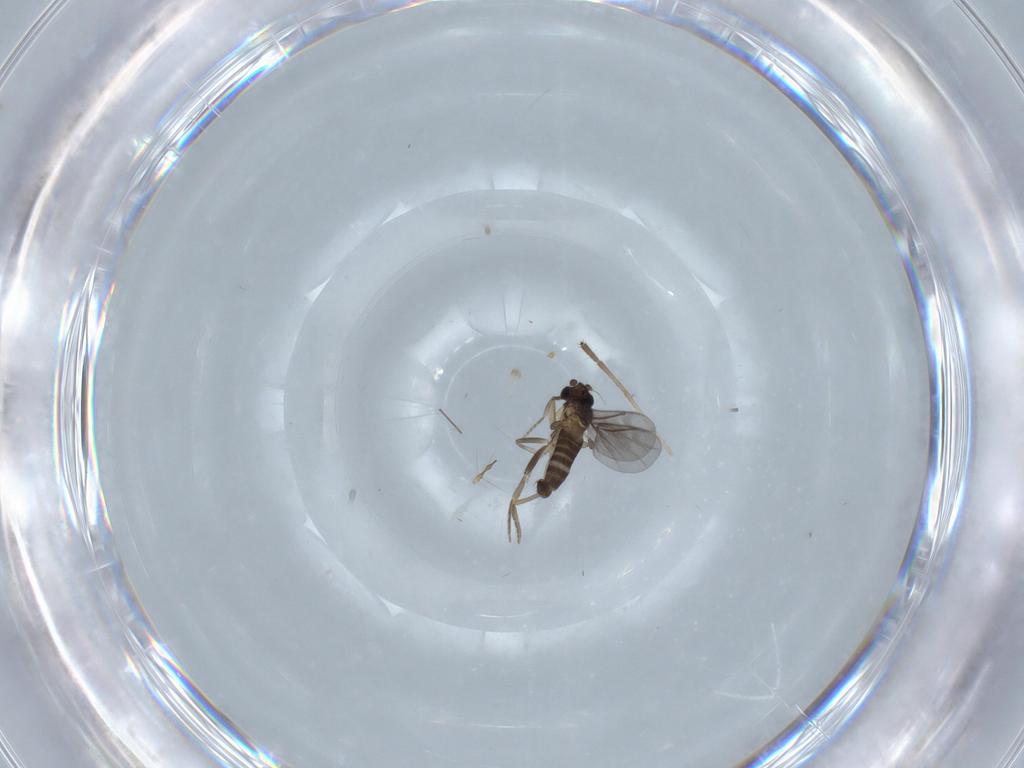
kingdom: Animalia
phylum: Arthropoda
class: Insecta
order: Diptera
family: Limoniidae
